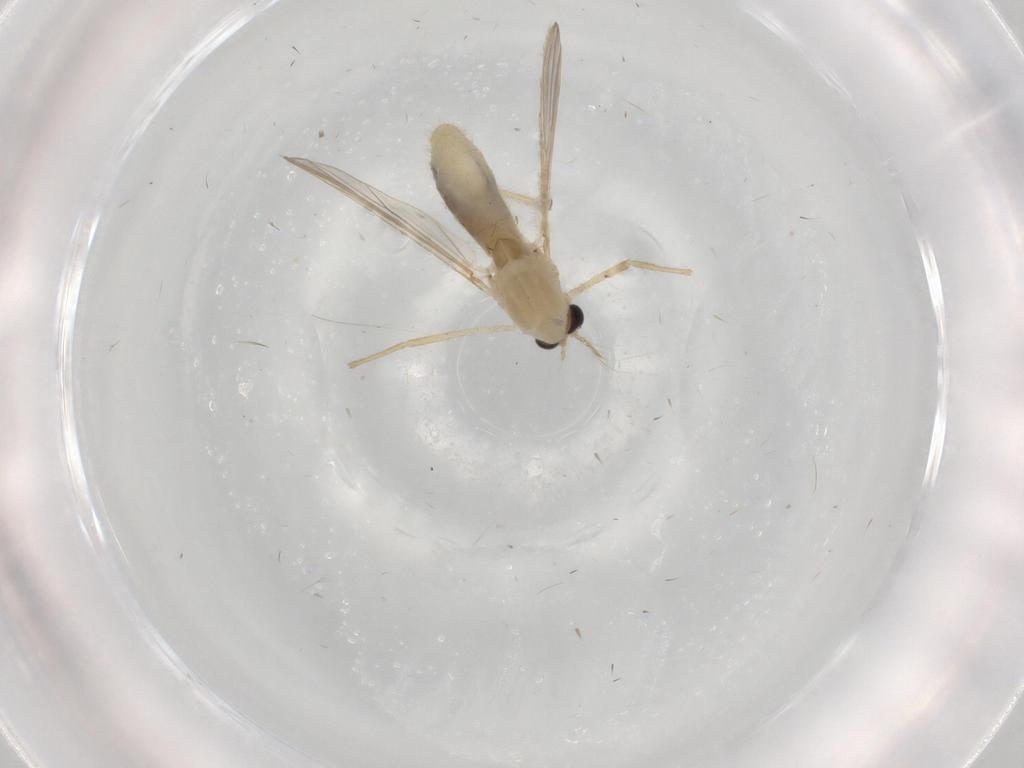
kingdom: Animalia
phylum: Arthropoda
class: Insecta
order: Diptera
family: Chironomidae
